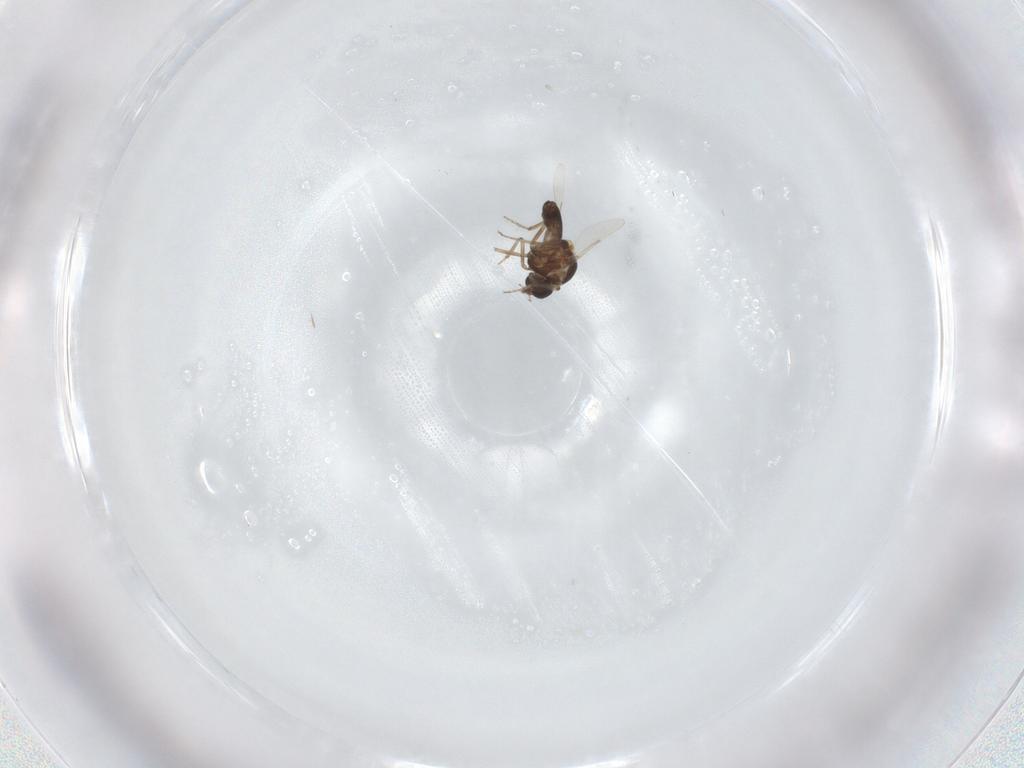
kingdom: Animalia
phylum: Arthropoda
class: Insecta
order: Diptera
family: Ceratopogonidae
